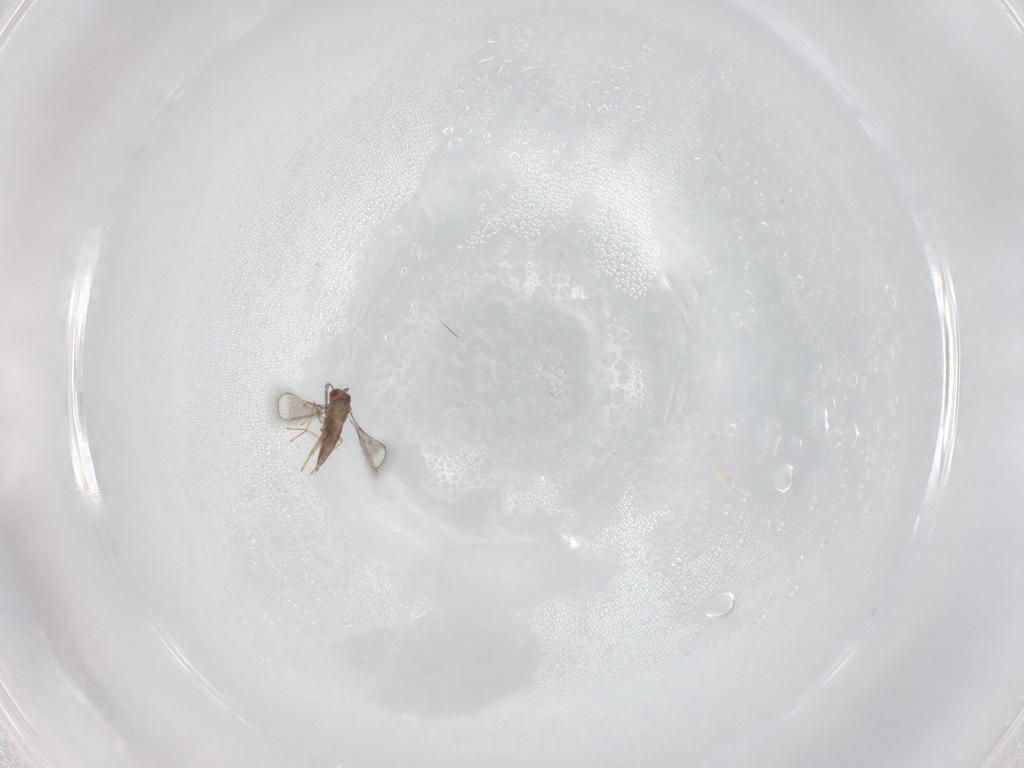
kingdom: Animalia
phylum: Arthropoda
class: Insecta
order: Hymenoptera
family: Trichogrammatidae
